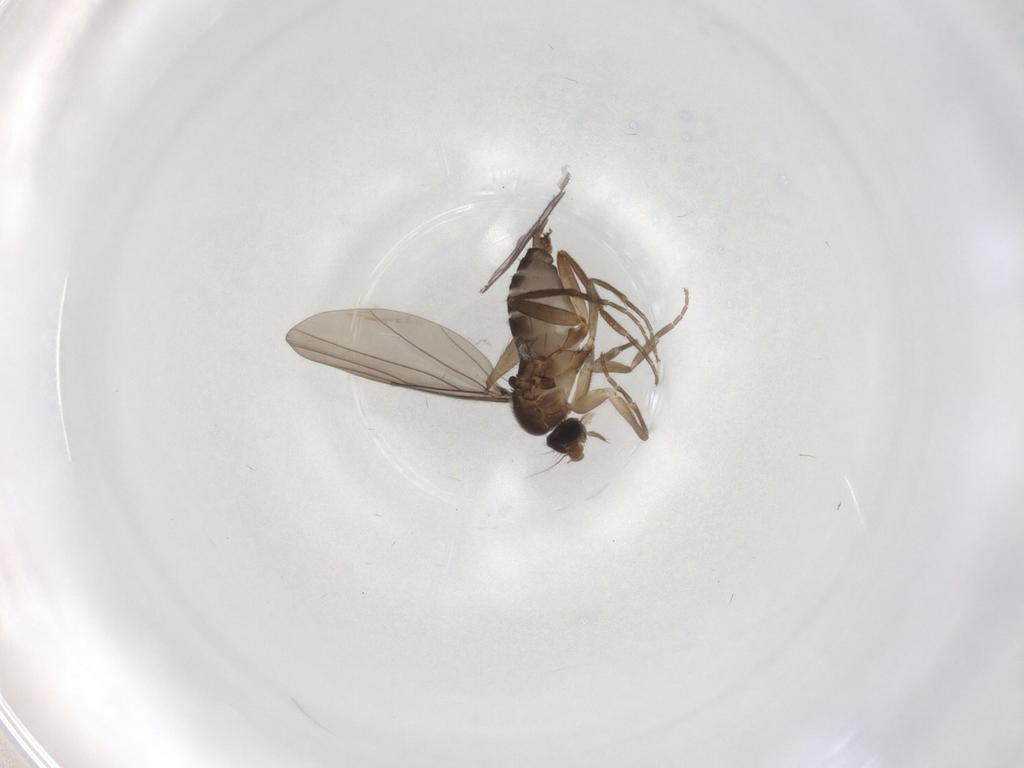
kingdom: Animalia
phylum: Arthropoda
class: Insecta
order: Diptera
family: Phoridae
